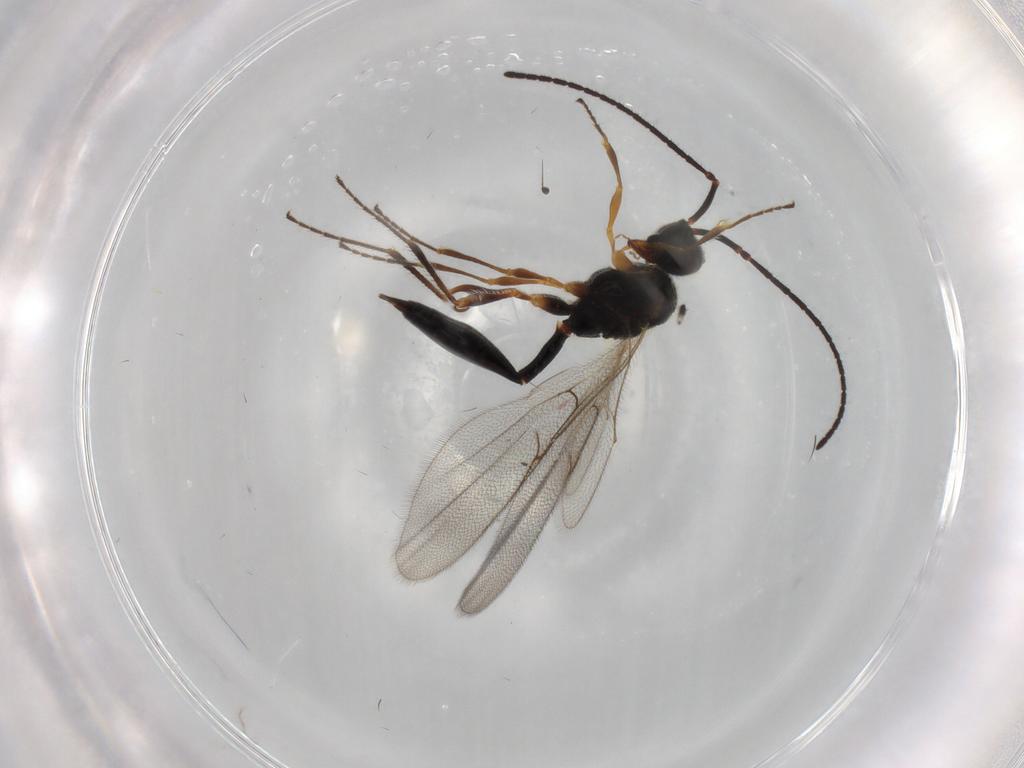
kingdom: Animalia
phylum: Arthropoda
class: Insecta
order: Hymenoptera
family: Diapriidae
